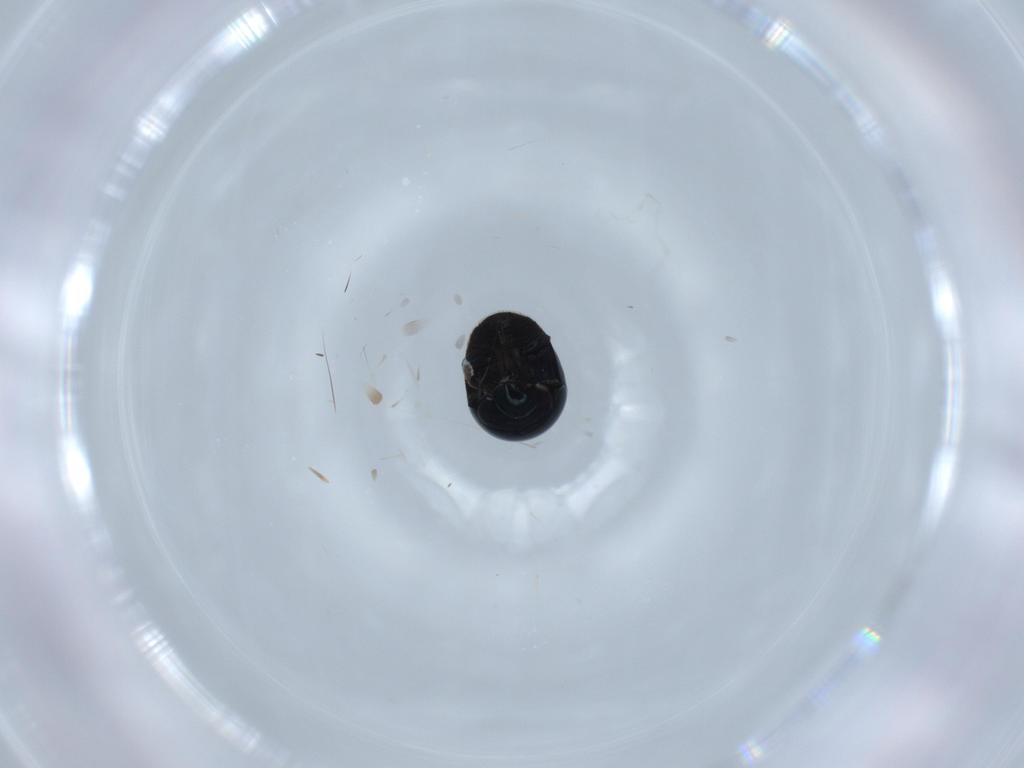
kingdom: Animalia
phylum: Arthropoda
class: Insecta
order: Coleoptera
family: Cybocephalidae
